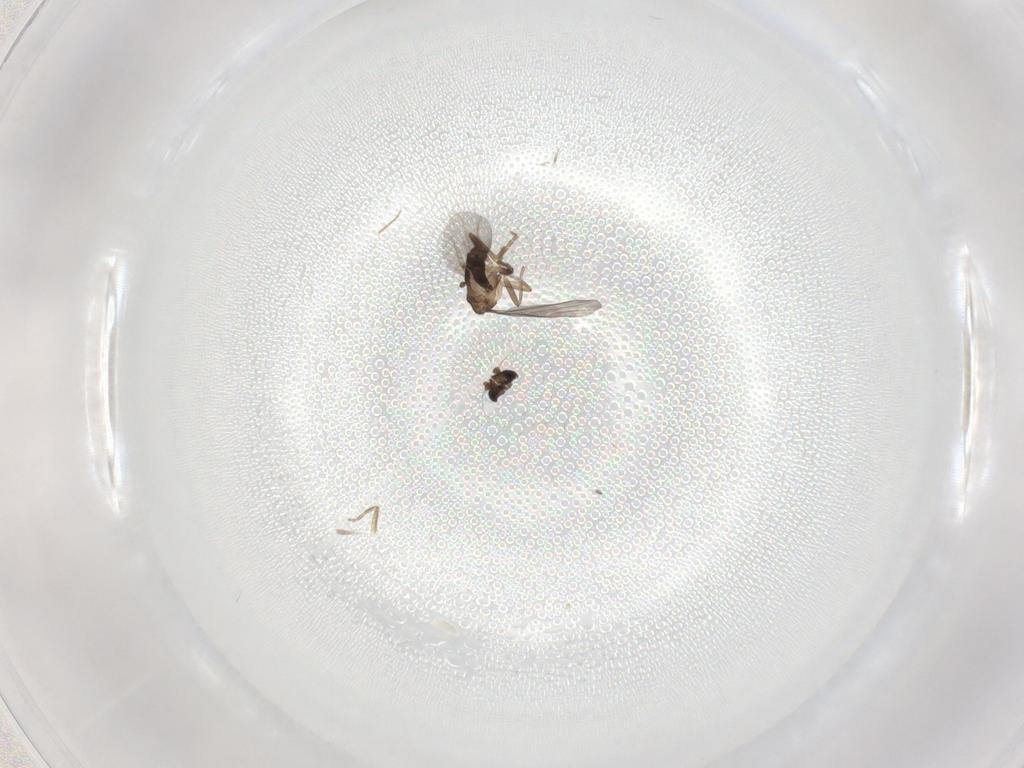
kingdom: Animalia
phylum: Arthropoda
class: Insecta
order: Diptera
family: Phoridae
